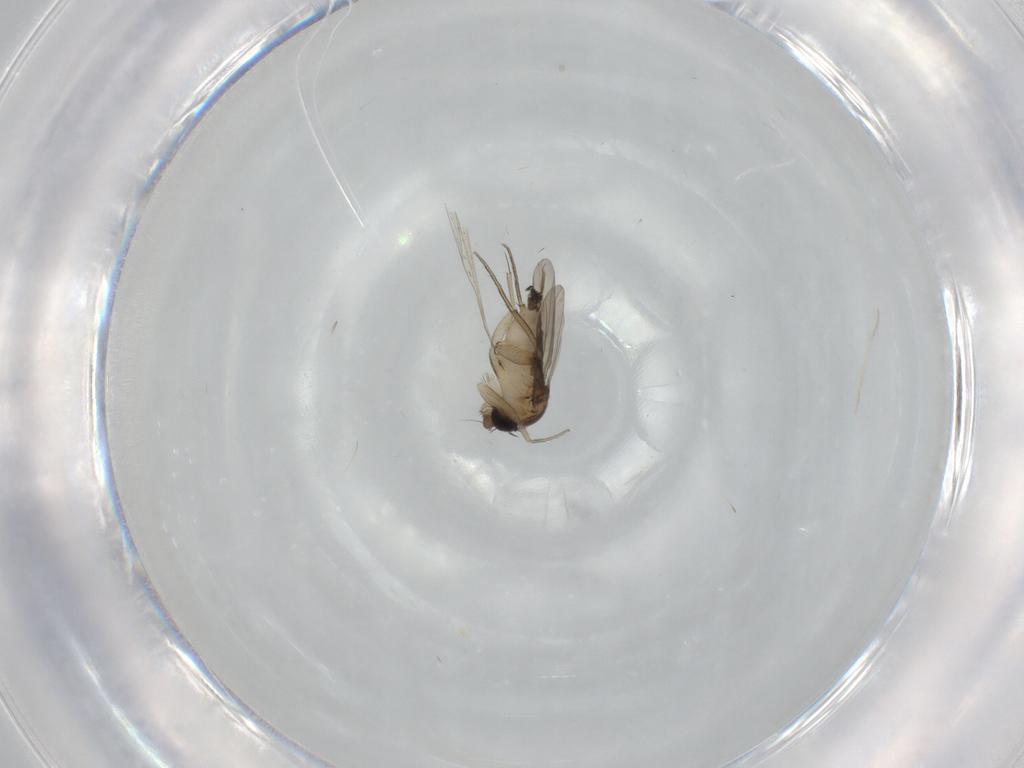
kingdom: Animalia
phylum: Arthropoda
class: Insecta
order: Diptera
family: Phoridae
